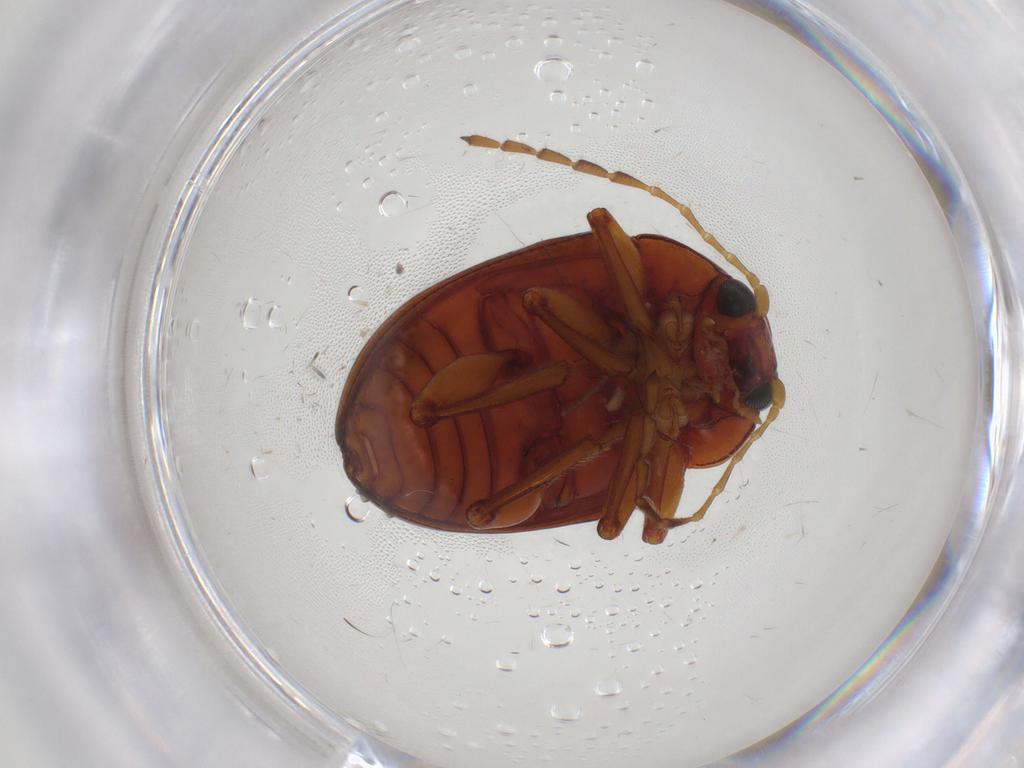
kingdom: Animalia
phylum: Arthropoda
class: Insecta
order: Coleoptera
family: Chrysomelidae
